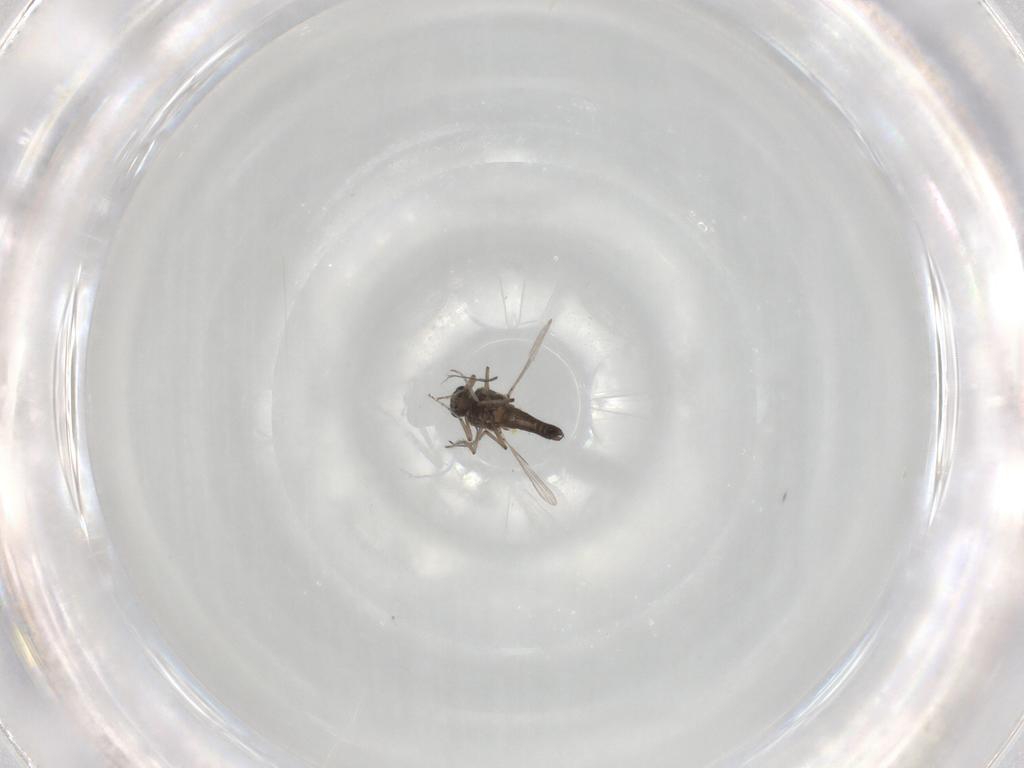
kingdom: Animalia
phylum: Arthropoda
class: Insecta
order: Diptera
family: Ceratopogonidae
